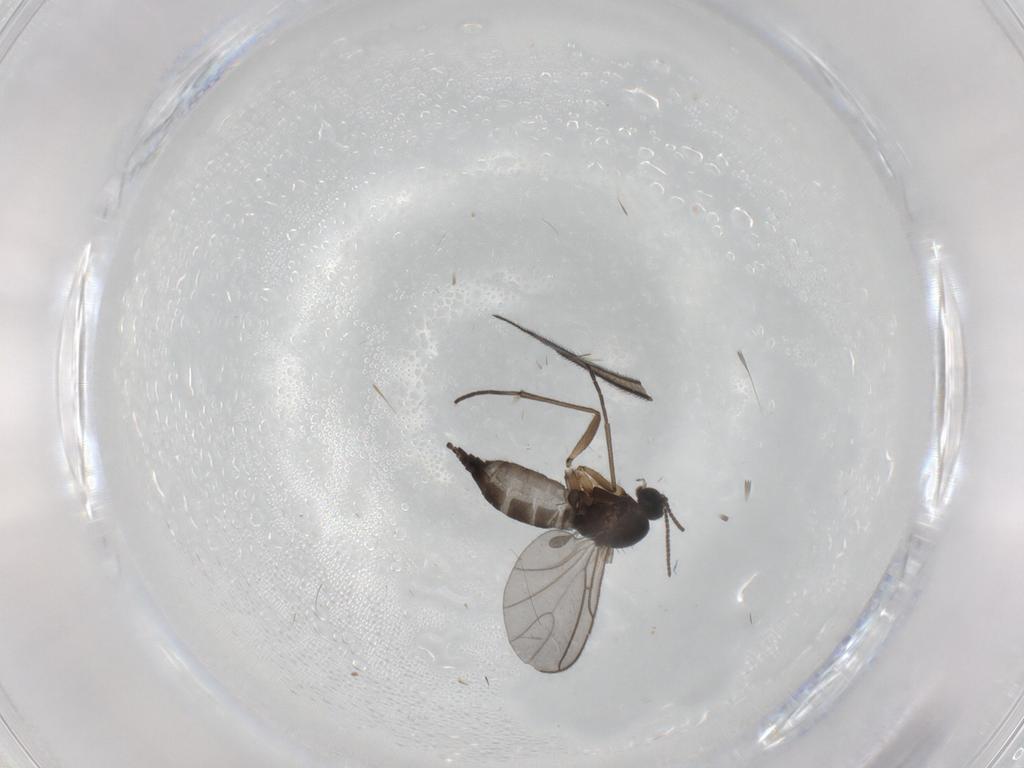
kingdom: Animalia
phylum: Arthropoda
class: Insecta
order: Diptera
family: Sciaridae
